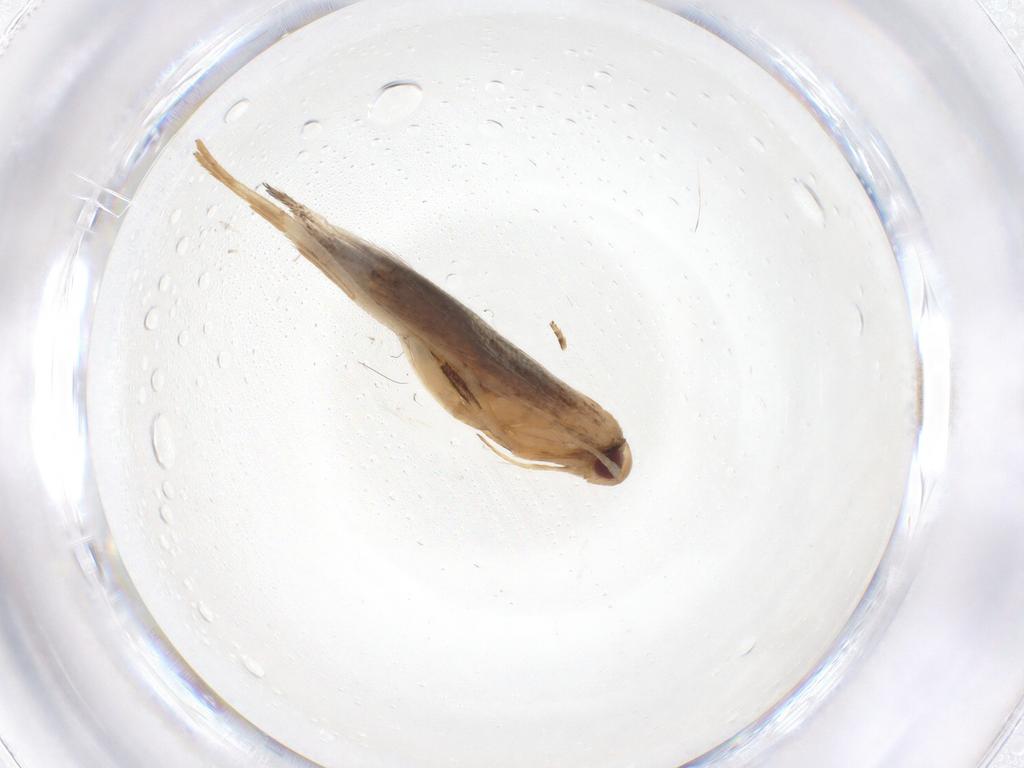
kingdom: Animalia
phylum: Arthropoda
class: Insecta
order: Lepidoptera
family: Cosmopterigidae
